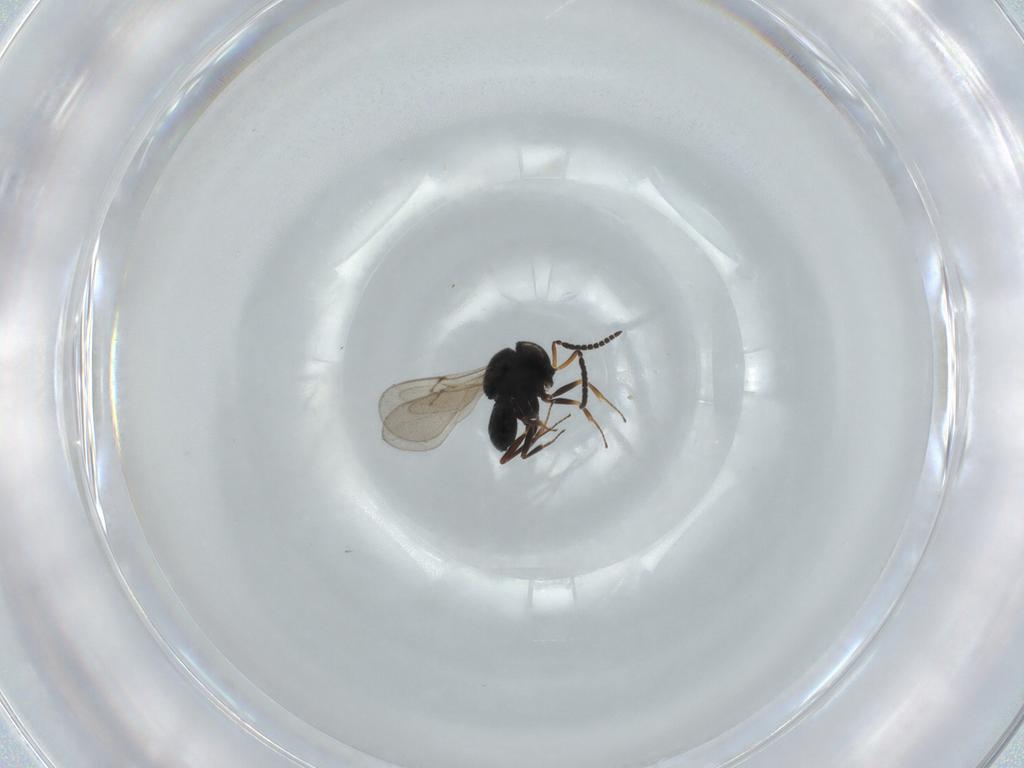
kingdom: Animalia
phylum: Arthropoda
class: Insecta
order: Hymenoptera
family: Scelionidae
